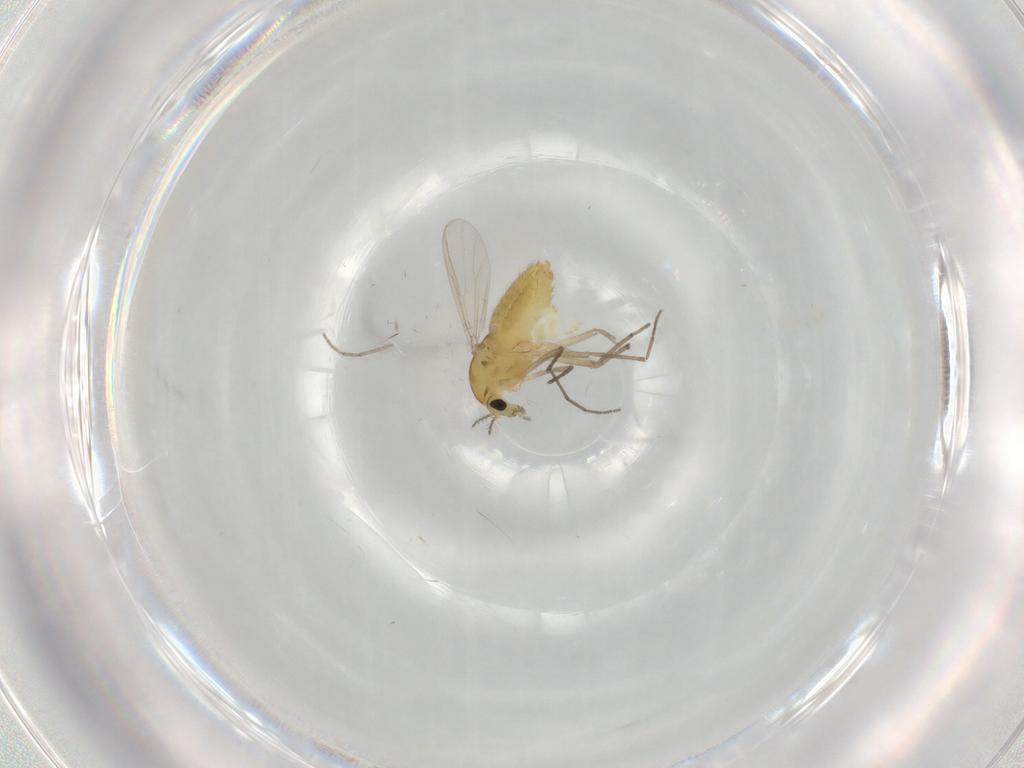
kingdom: Animalia
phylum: Arthropoda
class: Insecta
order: Diptera
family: Chironomidae
